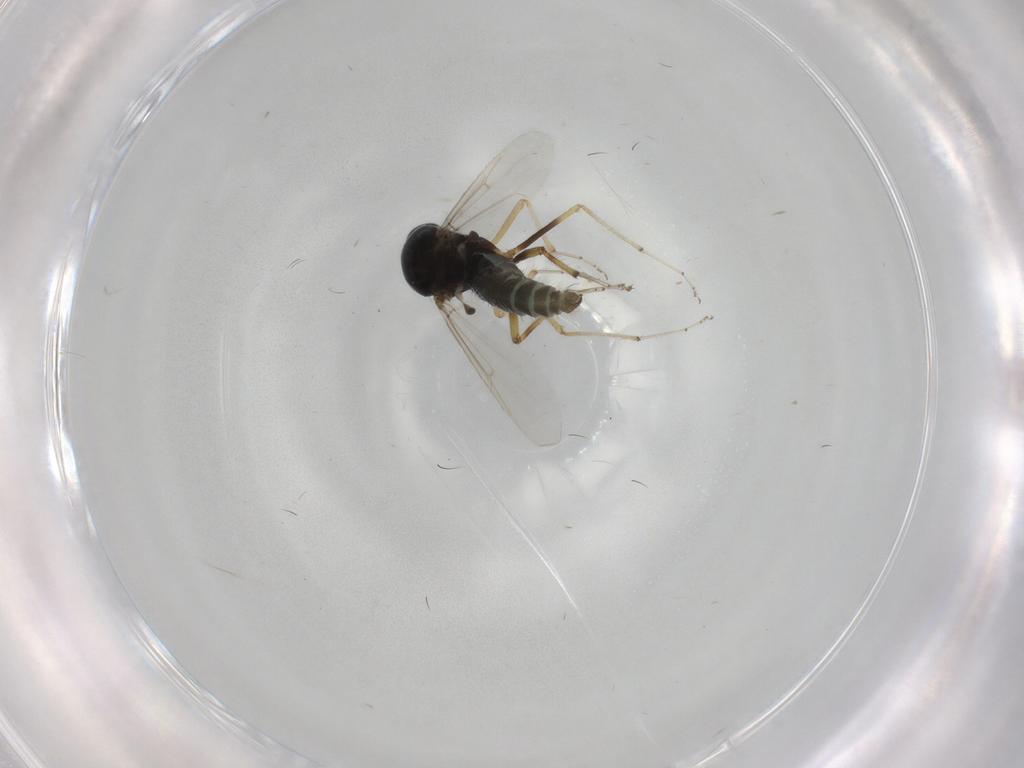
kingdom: Animalia
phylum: Arthropoda
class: Insecta
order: Diptera
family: Ceratopogonidae
